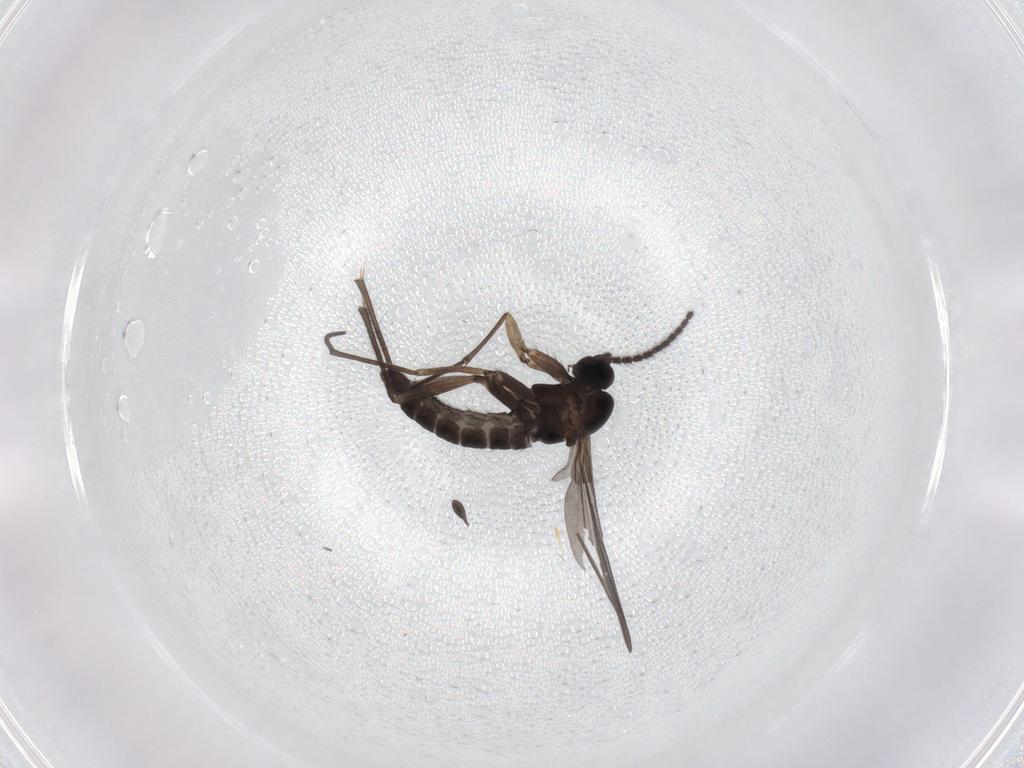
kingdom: Animalia
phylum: Arthropoda
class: Insecta
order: Diptera
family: Sciaridae
